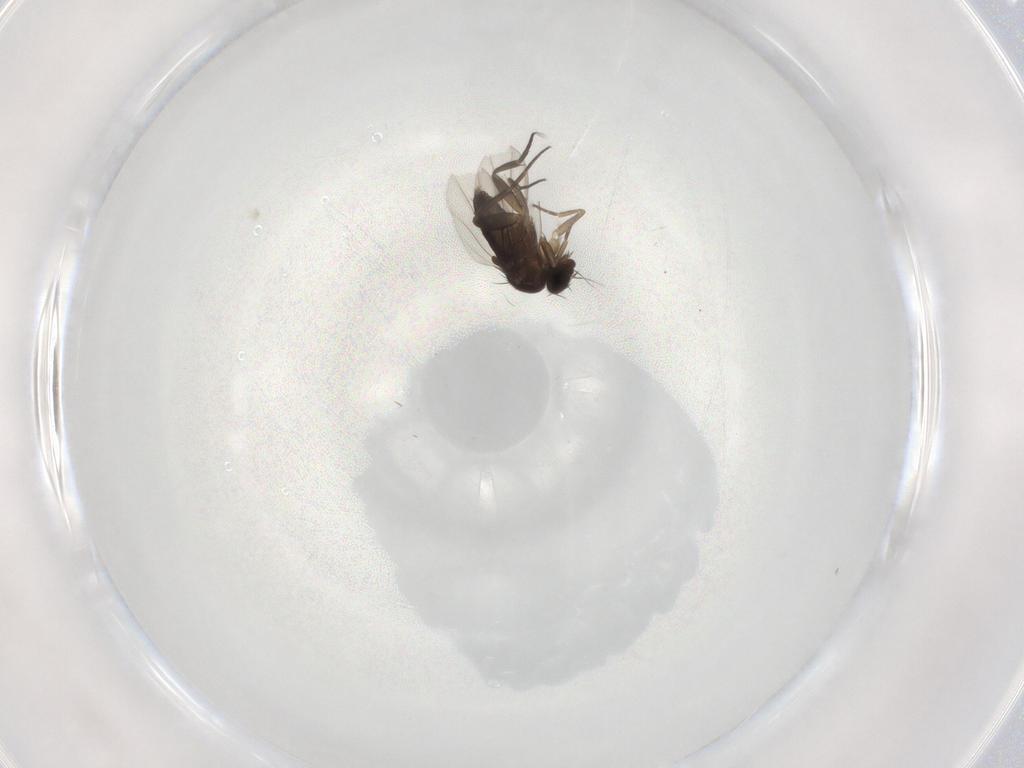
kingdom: Animalia
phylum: Arthropoda
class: Insecta
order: Diptera
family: Phoridae
